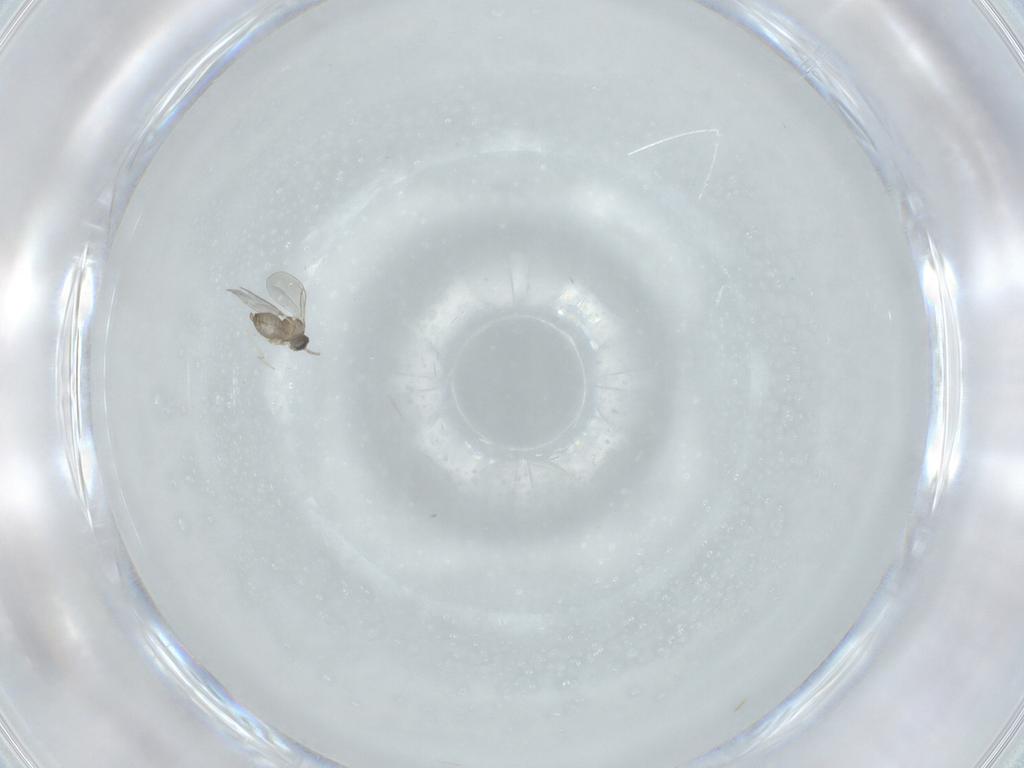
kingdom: Animalia
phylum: Arthropoda
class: Insecta
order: Diptera
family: Cecidomyiidae
